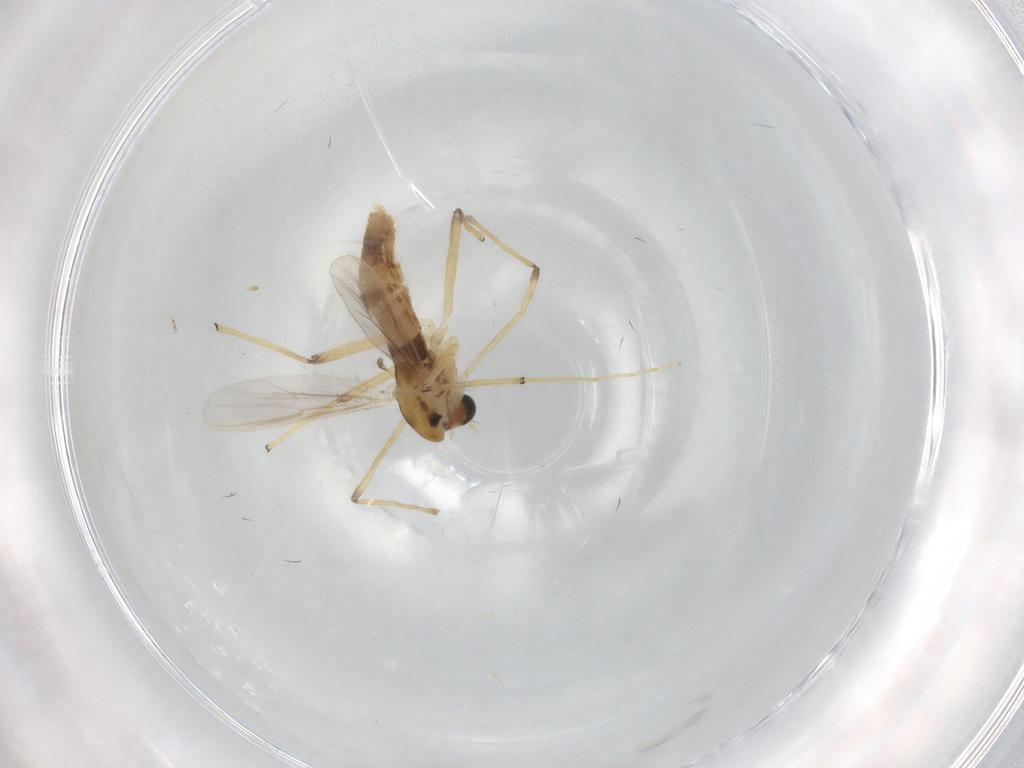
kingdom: Animalia
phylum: Arthropoda
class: Insecta
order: Diptera
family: Chironomidae
